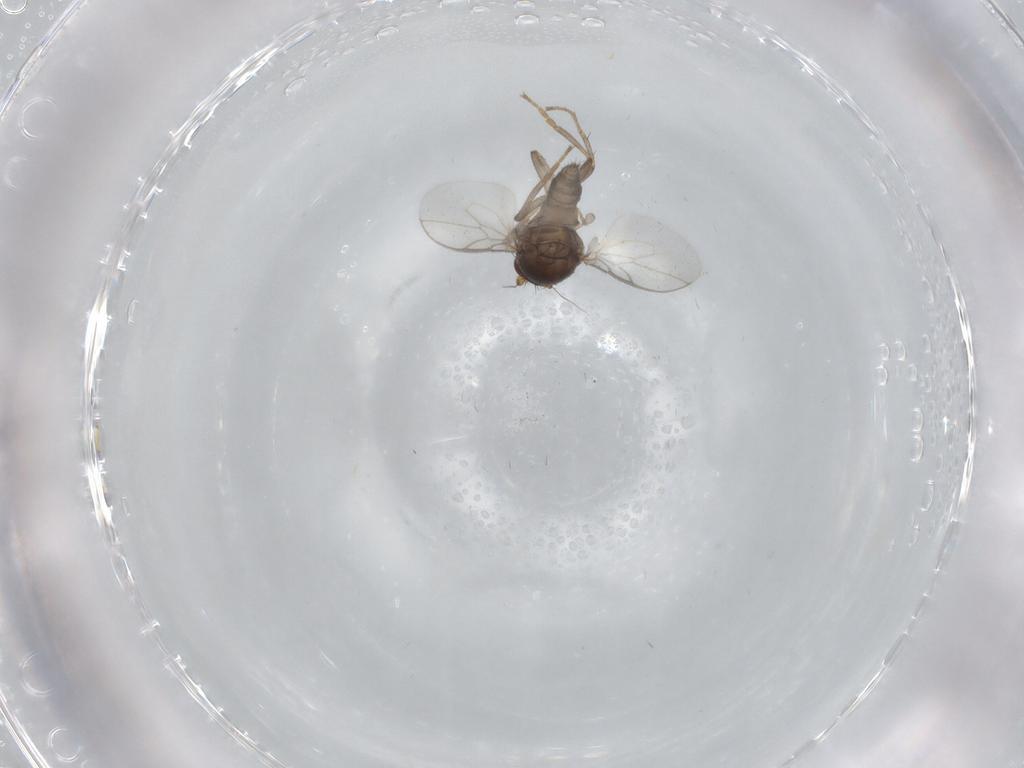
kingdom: Animalia
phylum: Arthropoda
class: Insecta
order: Diptera
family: Sphaeroceridae
